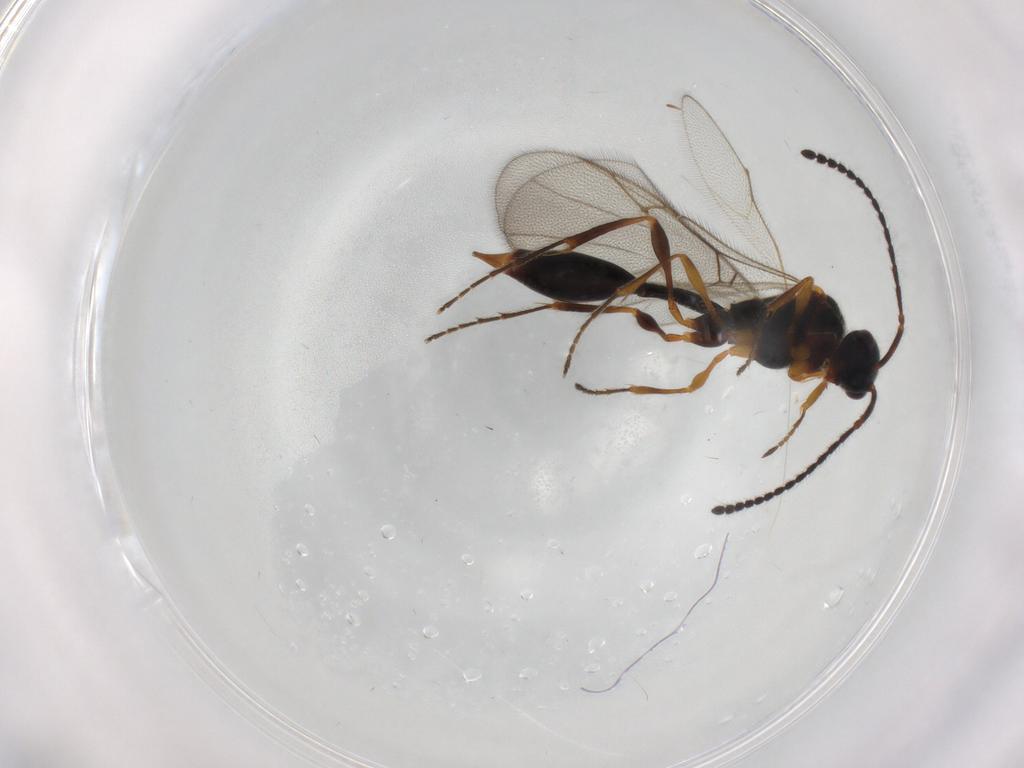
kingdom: Animalia
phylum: Arthropoda
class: Insecta
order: Hymenoptera
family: Diapriidae
